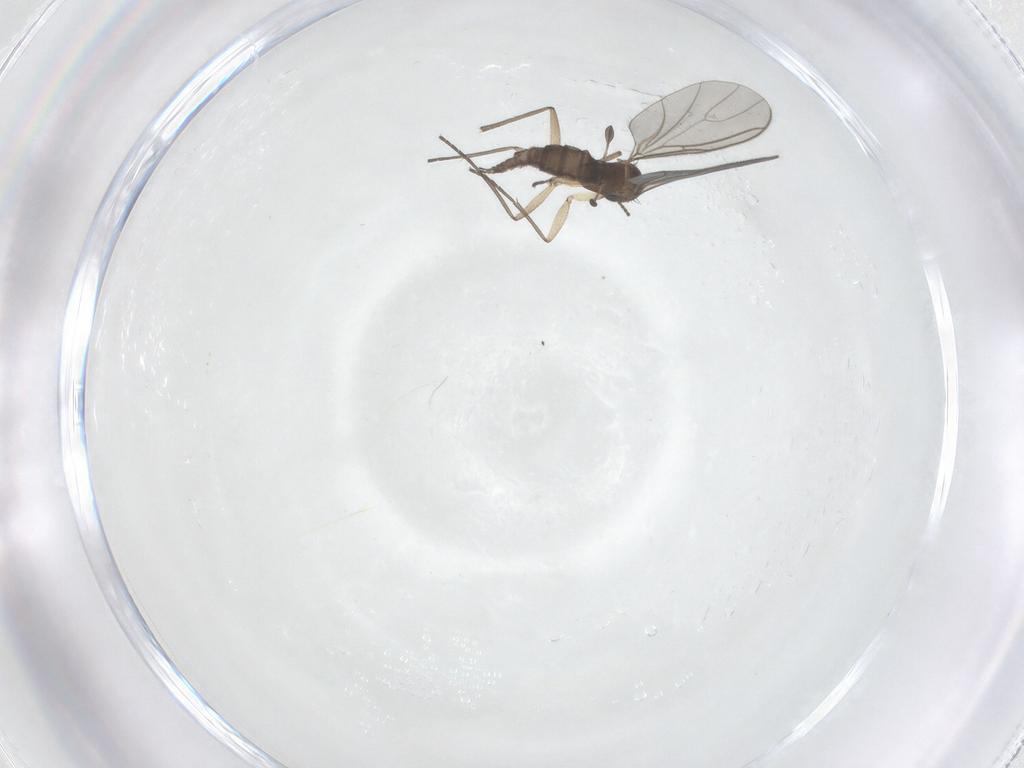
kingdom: Animalia
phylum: Arthropoda
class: Insecta
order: Diptera
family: Sciaridae
